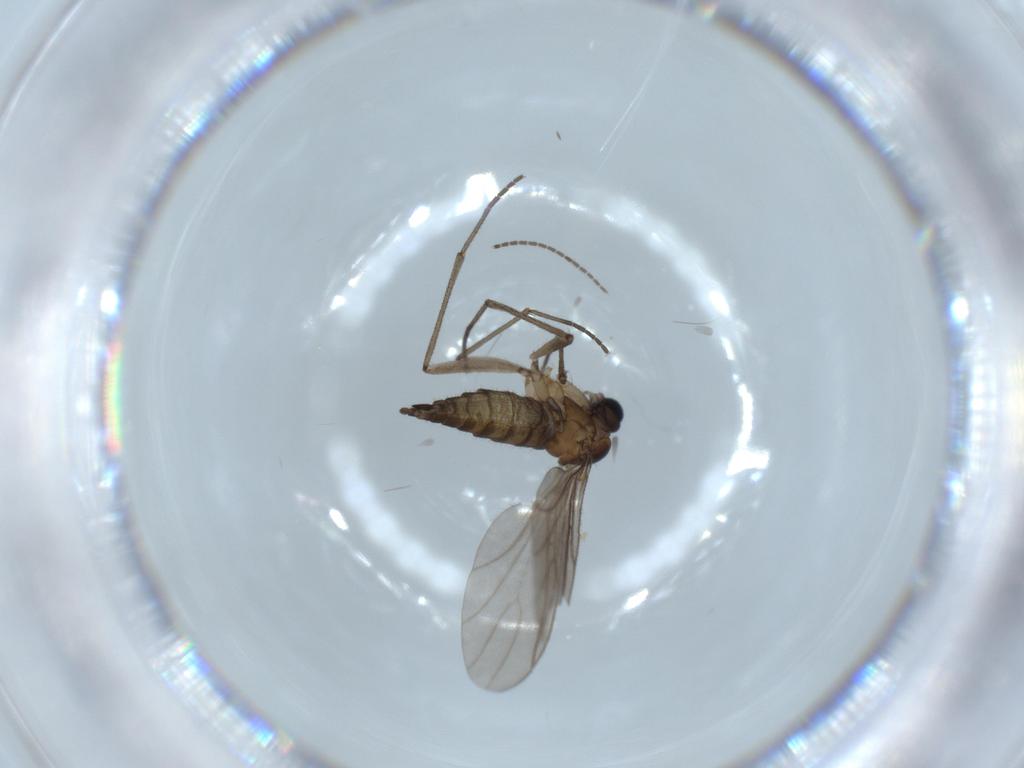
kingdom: Animalia
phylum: Arthropoda
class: Insecta
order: Diptera
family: Sciaridae
